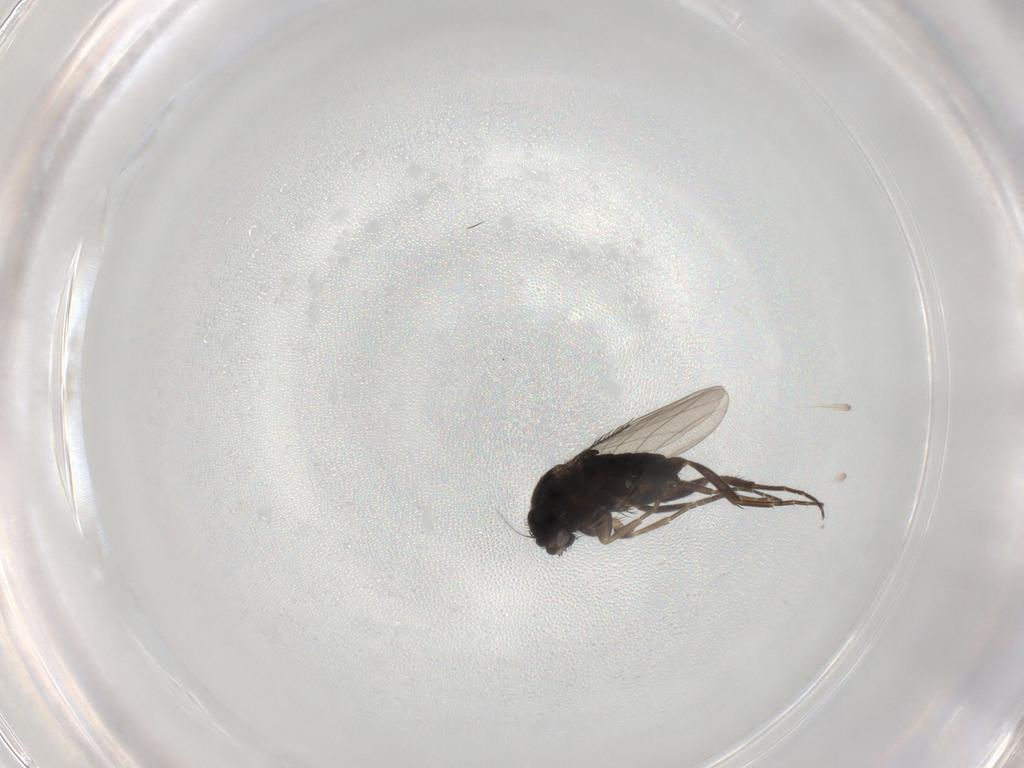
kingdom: Animalia
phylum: Arthropoda
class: Insecta
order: Diptera
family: Phoridae
